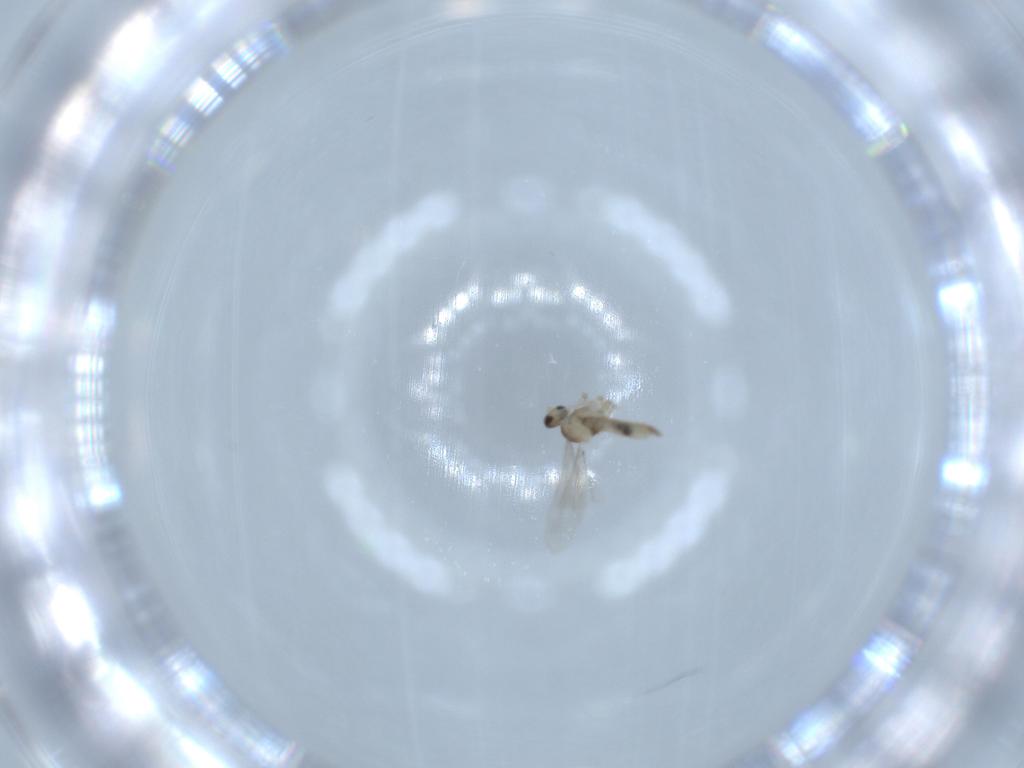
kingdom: Animalia
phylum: Arthropoda
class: Insecta
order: Diptera
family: Cecidomyiidae
